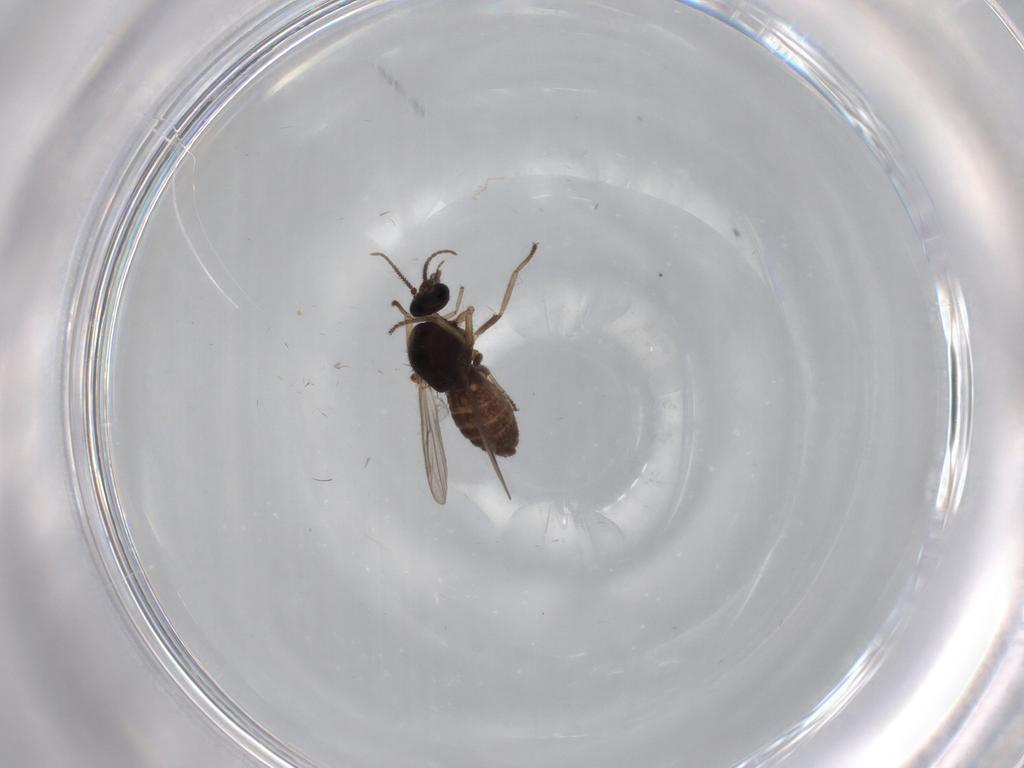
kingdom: Animalia
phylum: Arthropoda
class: Insecta
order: Diptera
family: Ceratopogonidae
